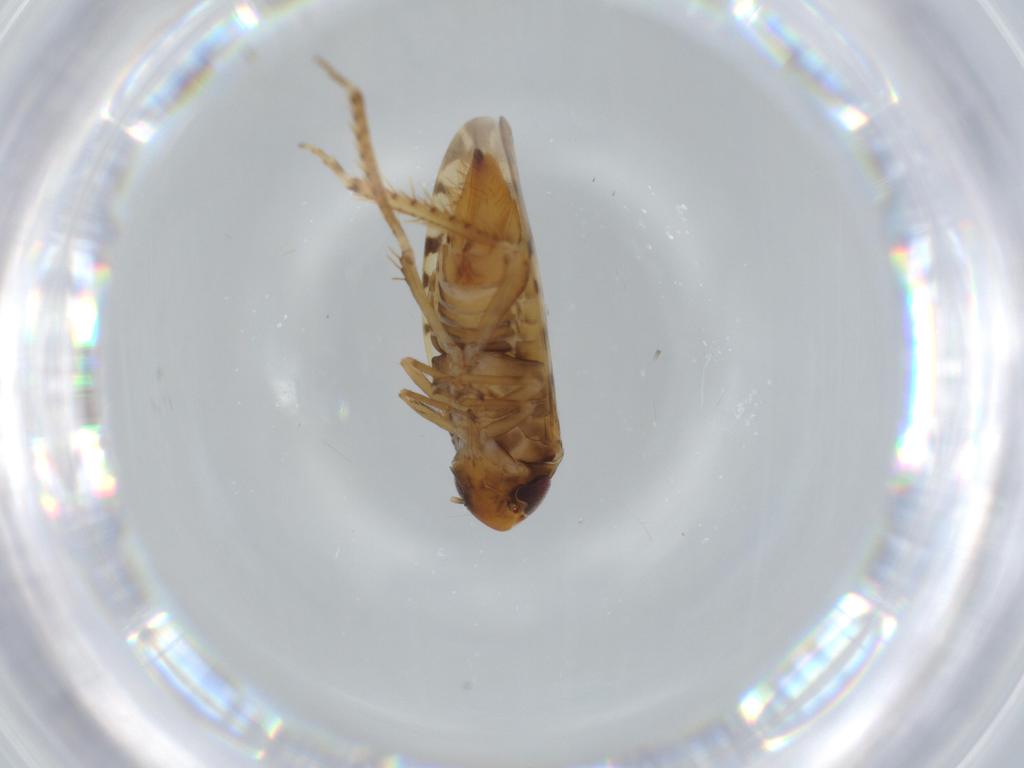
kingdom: Animalia
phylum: Arthropoda
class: Insecta
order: Hemiptera
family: Cicadellidae
